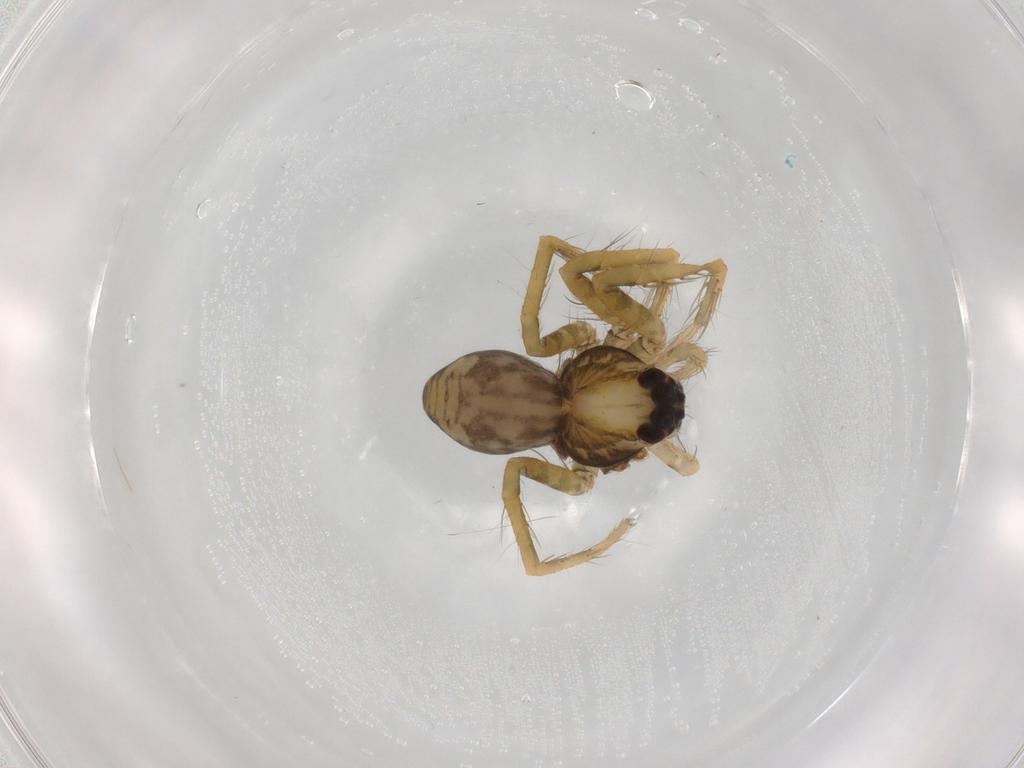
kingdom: Animalia
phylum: Arthropoda
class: Arachnida
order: Araneae
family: Ctenidae
